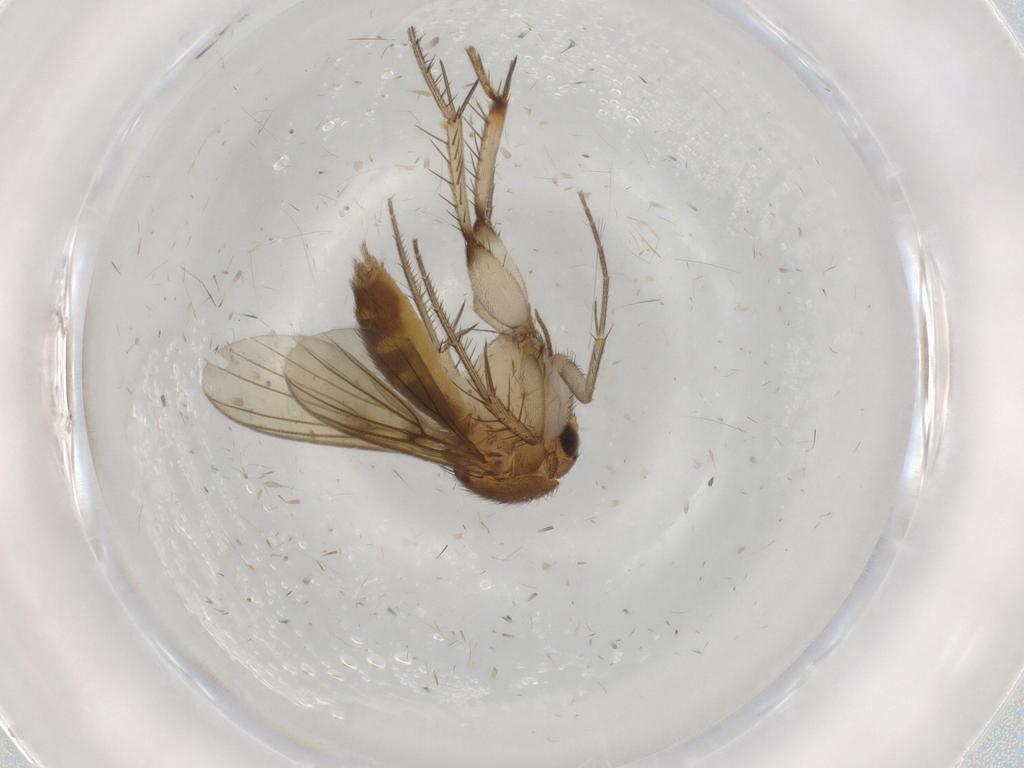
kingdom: Animalia
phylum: Arthropoda
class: Insecta
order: Diptera
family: Mycetophilidae
